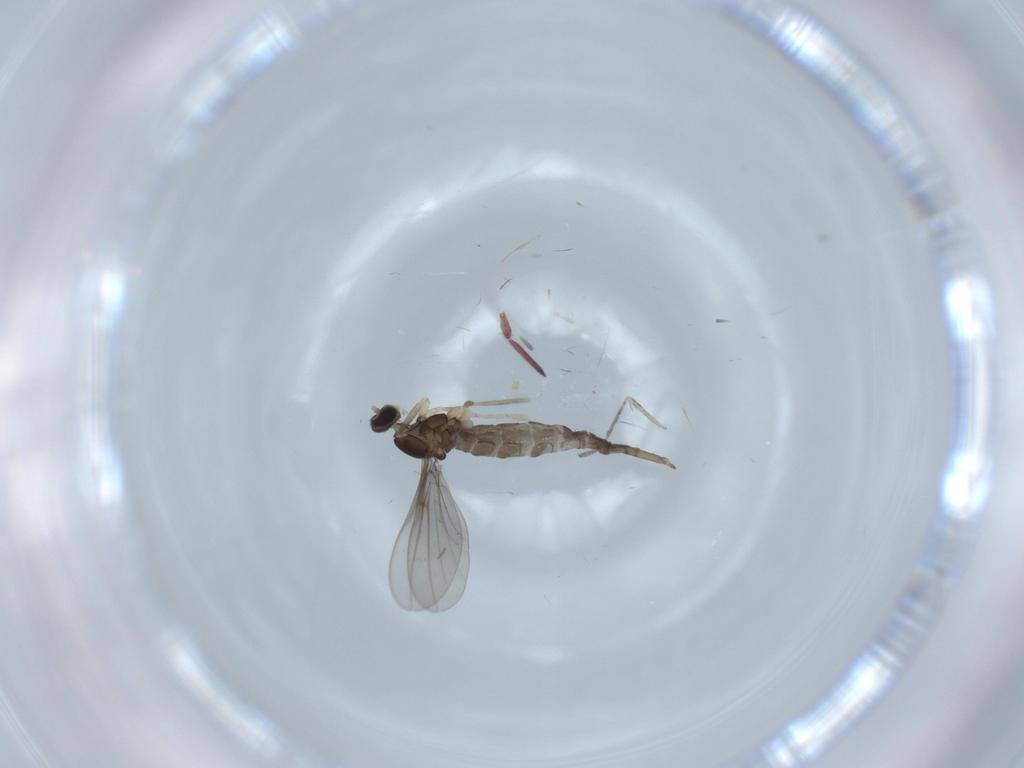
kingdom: Animalia
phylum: Arthropoda
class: Insecta
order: Diptera
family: Cecidomyiidae
